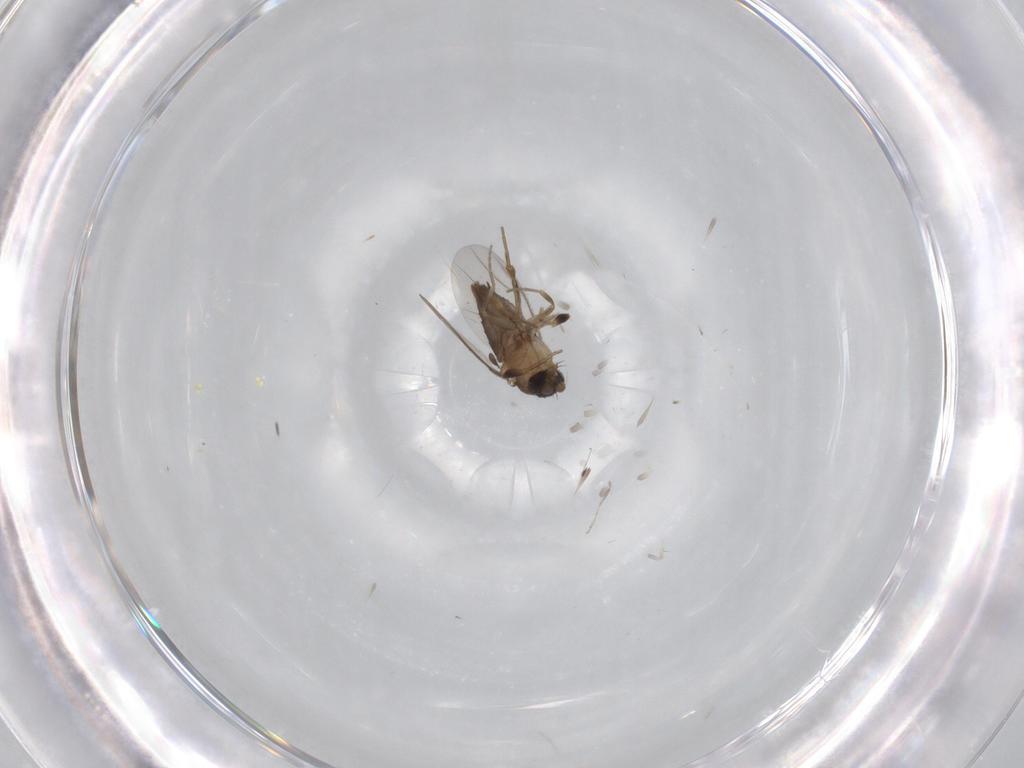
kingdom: Animalia
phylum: Arthropoda
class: Insecta
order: Diptera
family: Phoridae
